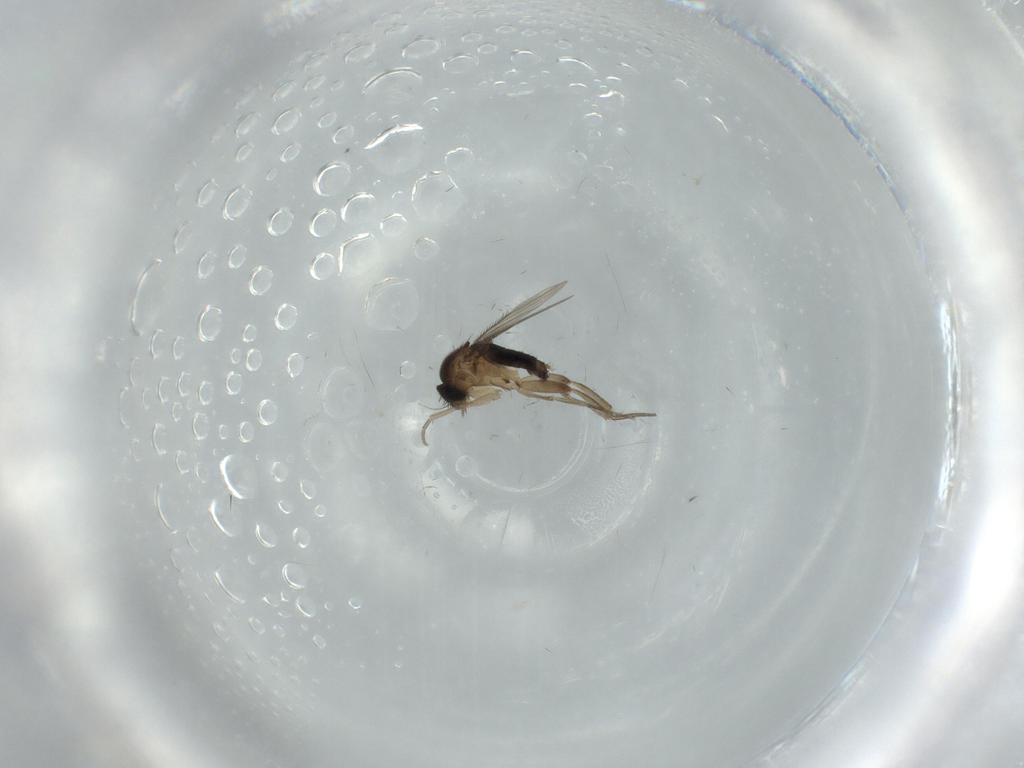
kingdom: Animalia
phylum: Arthropoda
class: Insecta
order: Diptera
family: Phoridae
